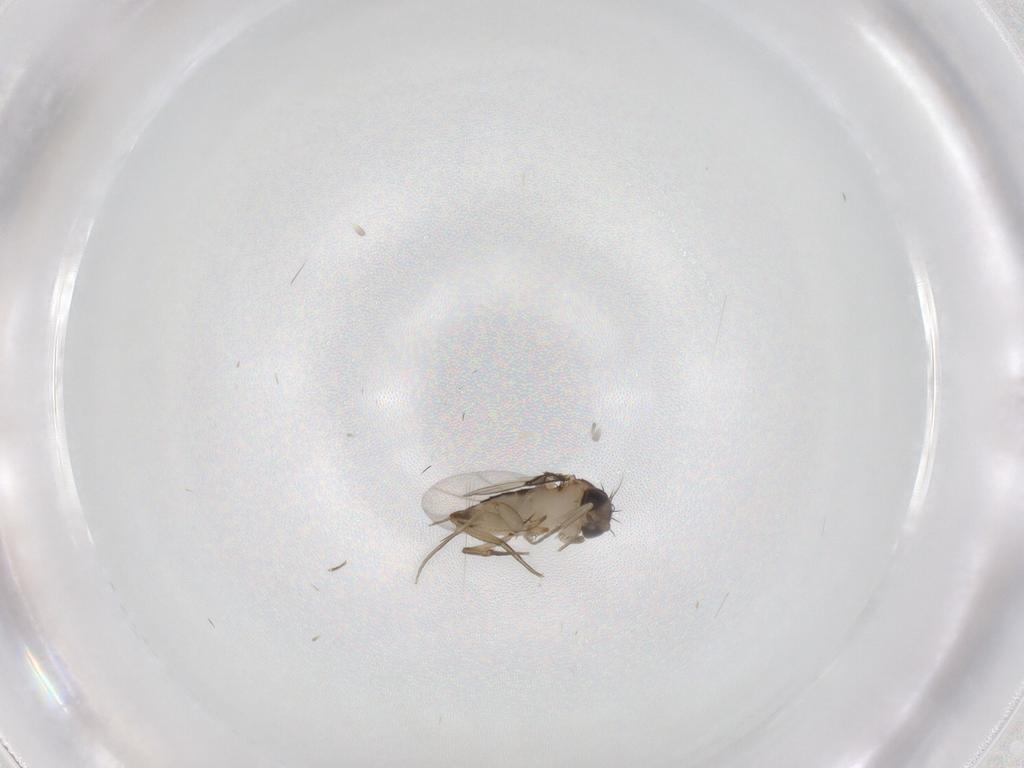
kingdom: Animalia
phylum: Arthropoda
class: Insecta
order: Diptera
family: Phoridae
